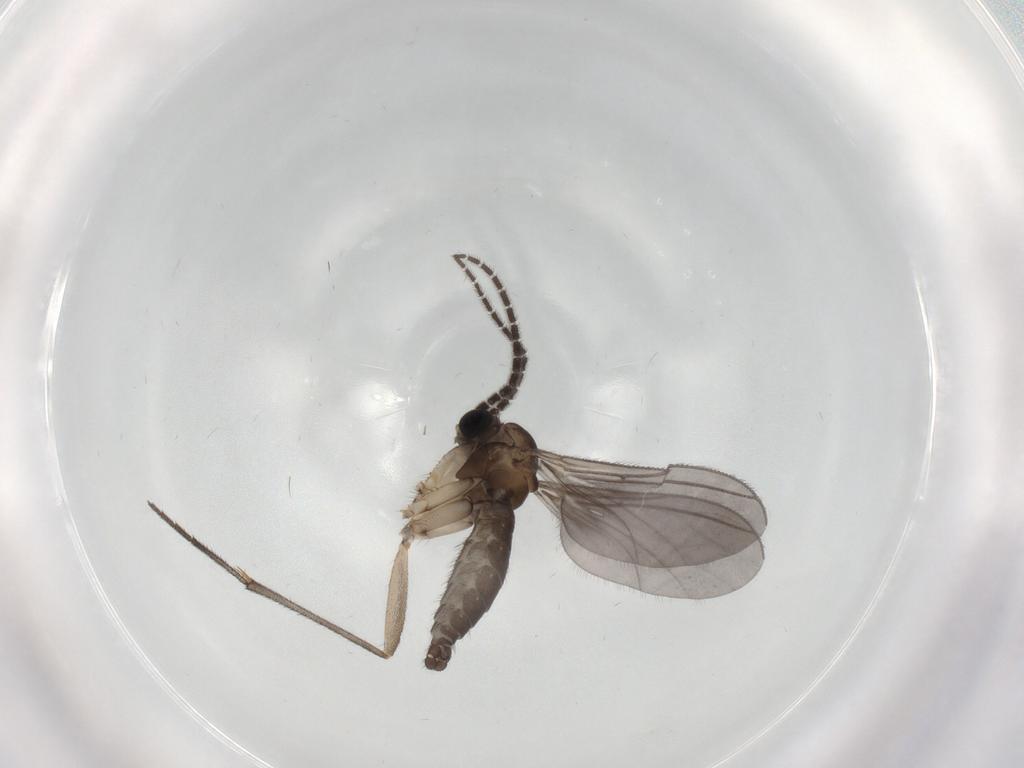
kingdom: Animalia
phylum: Arthropoda
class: Insecta
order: Diptera
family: Sciaridae
